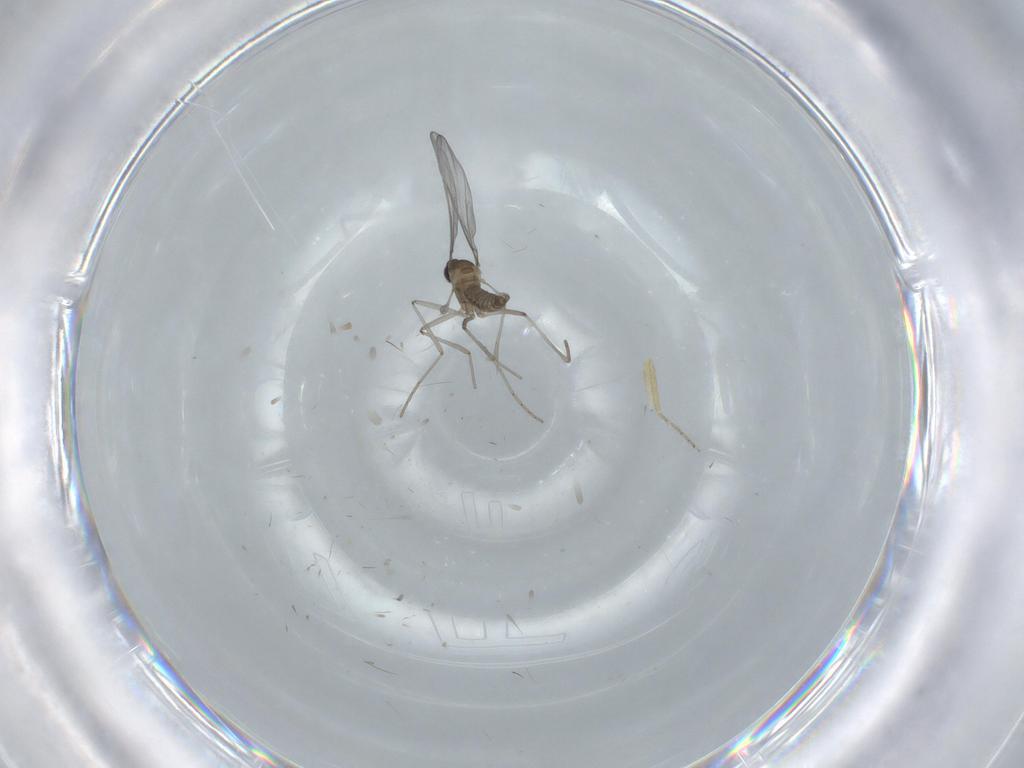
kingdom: Animalia
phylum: Arthropoda
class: Insecta
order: Diptera
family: Ceratopogonidae
